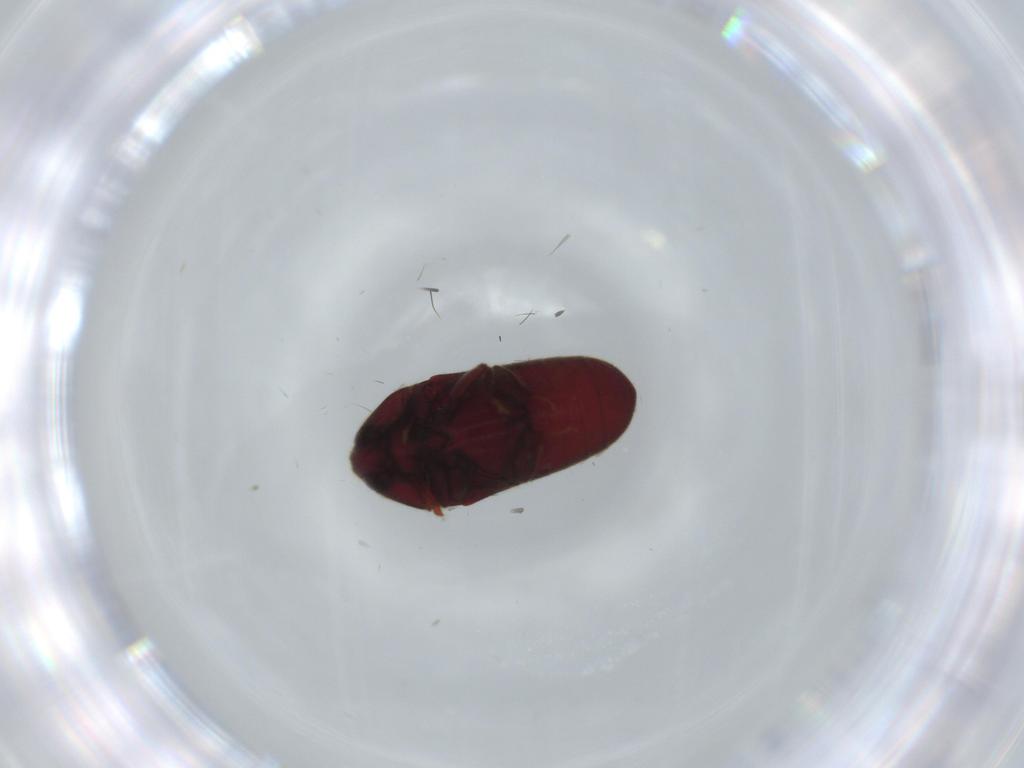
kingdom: Animalia
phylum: Arthropoda
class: Insecta
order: Coleoptera
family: Throscidae
